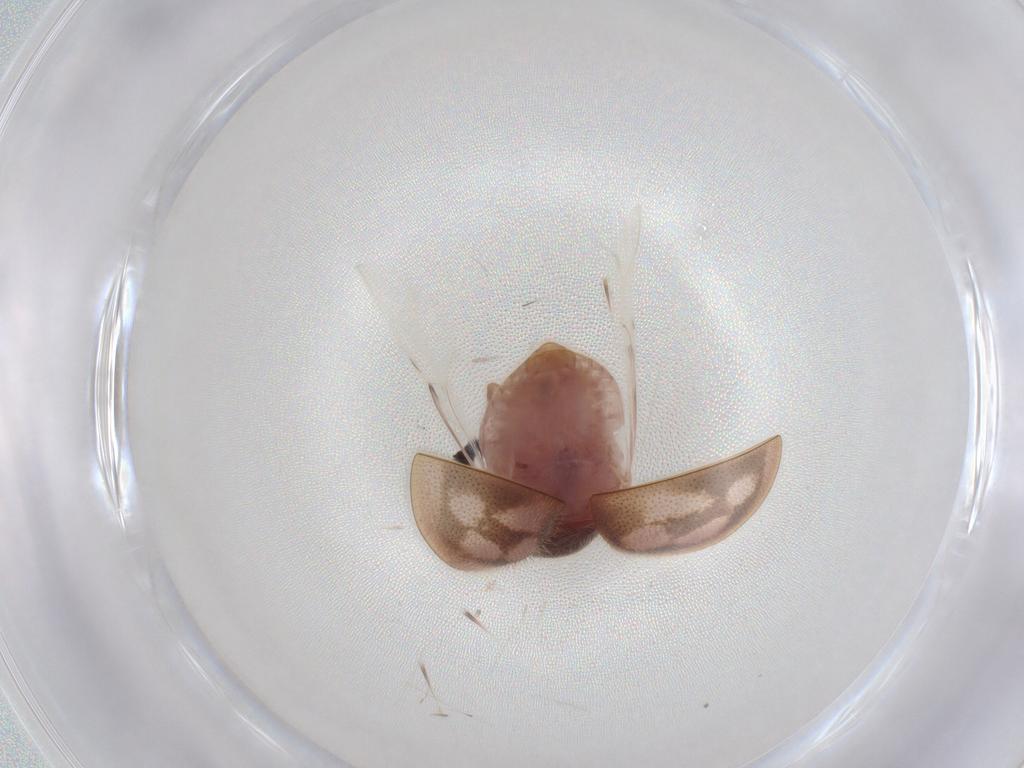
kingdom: Animalia
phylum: Arthropoda
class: Insecta
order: Coleoptera
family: Coccinellidae
